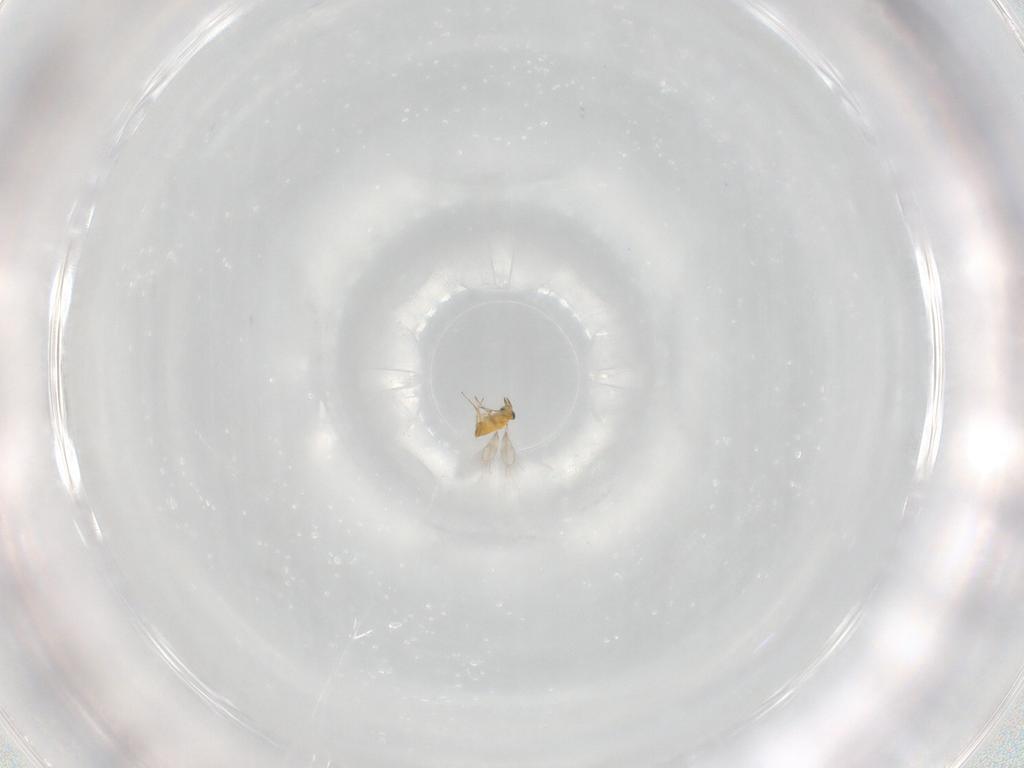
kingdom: Animalia
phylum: Arthropoda
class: Insecta
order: Hymenoptera
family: Trichogrammatidae
